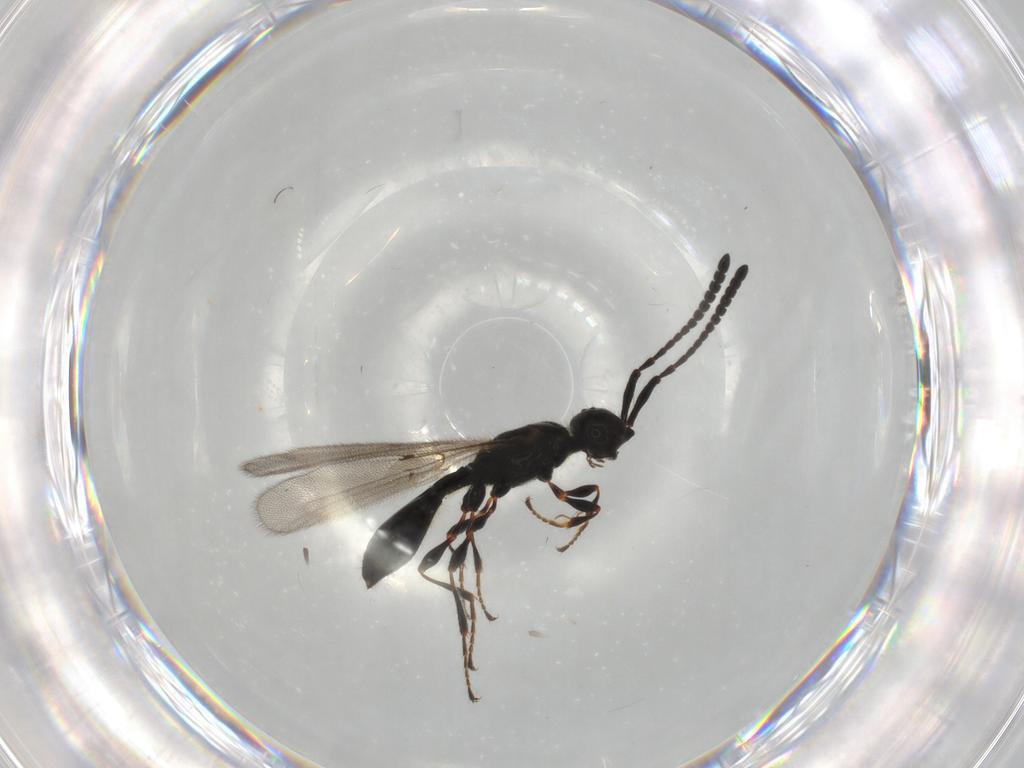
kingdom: Animalia
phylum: Arthropoda
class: Insecta
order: Hymenoptera
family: Diapriidae
